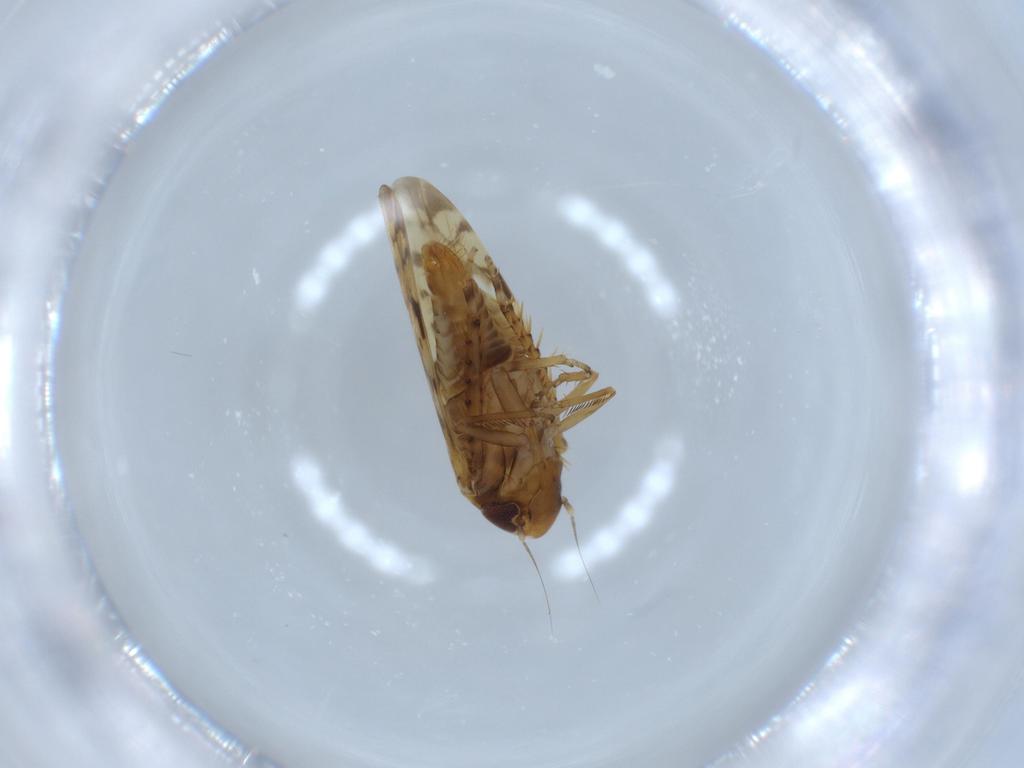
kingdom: Animalia
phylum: Arthropoda
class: Insecta
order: Hemiptera
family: Cicadellidae
